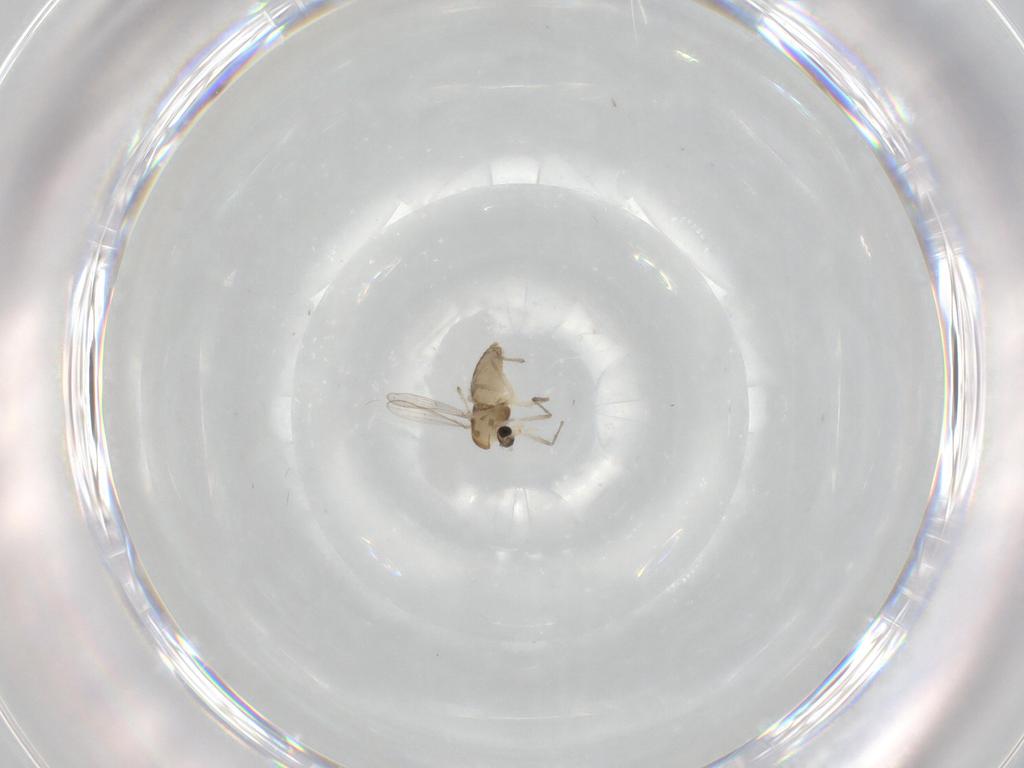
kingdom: Animalia
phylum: Arthropoda
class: Insecta
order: Diptera
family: Chironomidae
